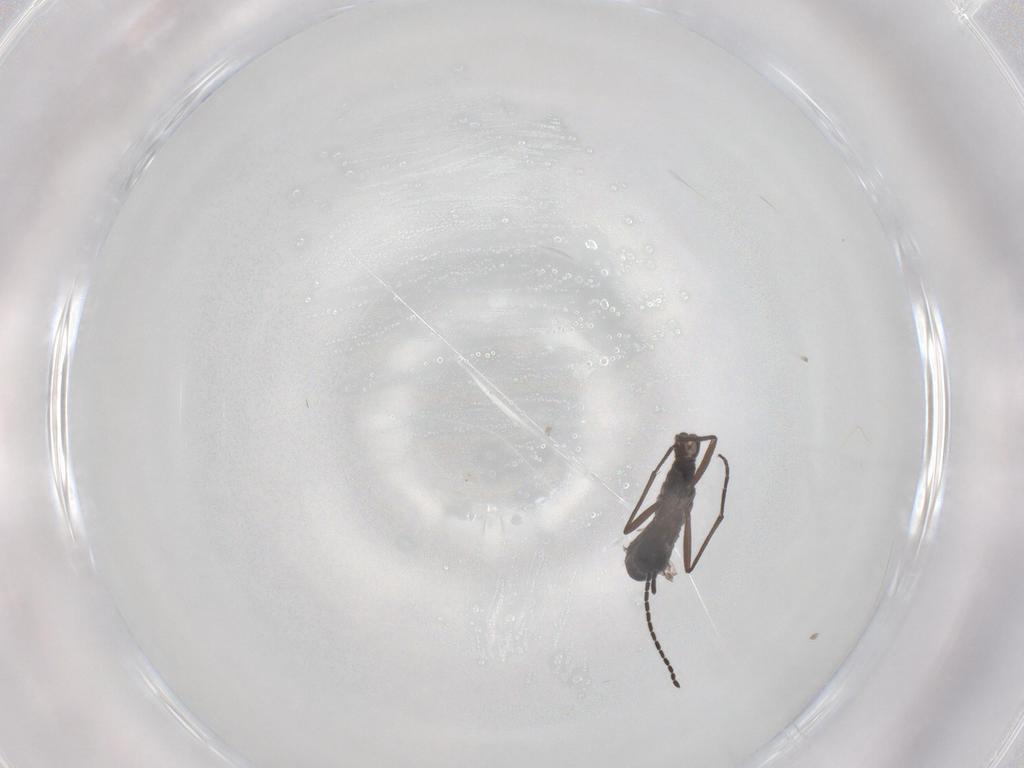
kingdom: Animalia
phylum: Arthropoda
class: Insecta
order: Diptera
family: Sciaridae
